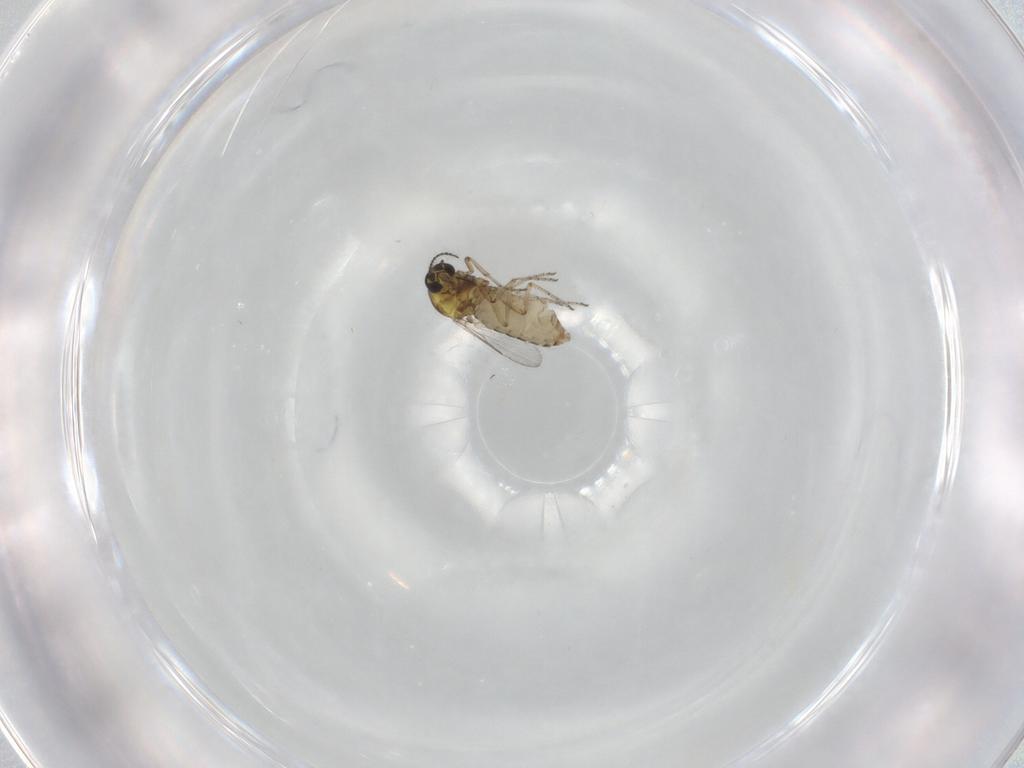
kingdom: Animalia
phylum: Arthropoda
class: Insecta
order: Diptera
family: Ceratopogonidae
